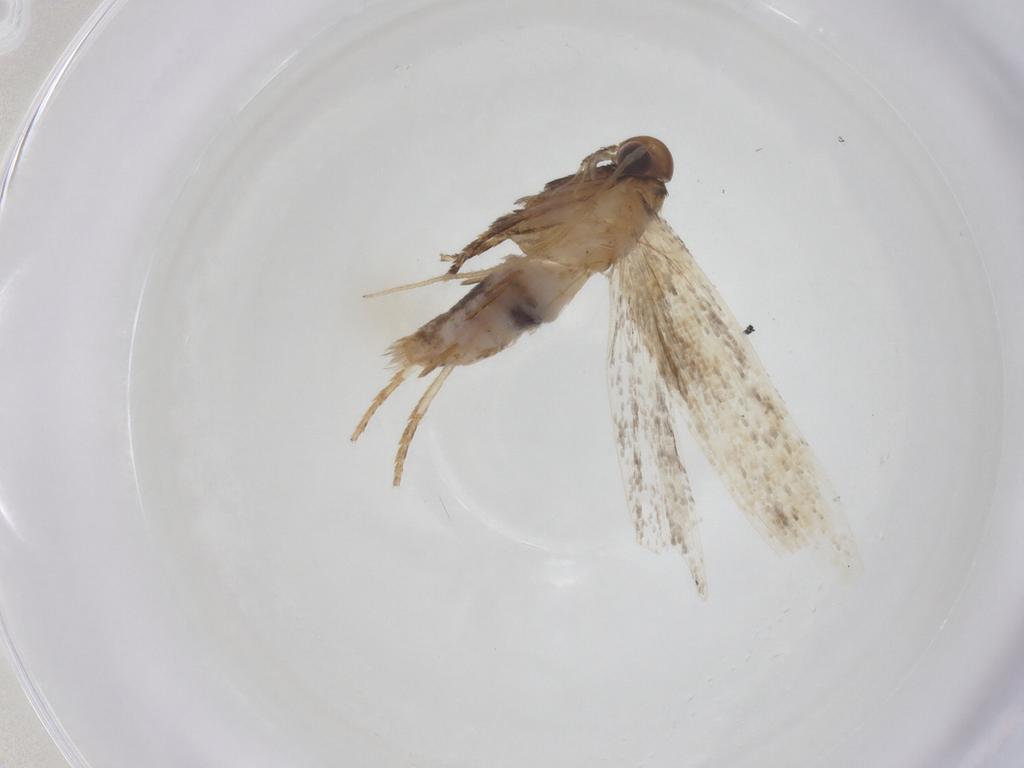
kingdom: Animalia
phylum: Arthropoda
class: Insecta
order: Lepidoptera
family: Gelechiidae
